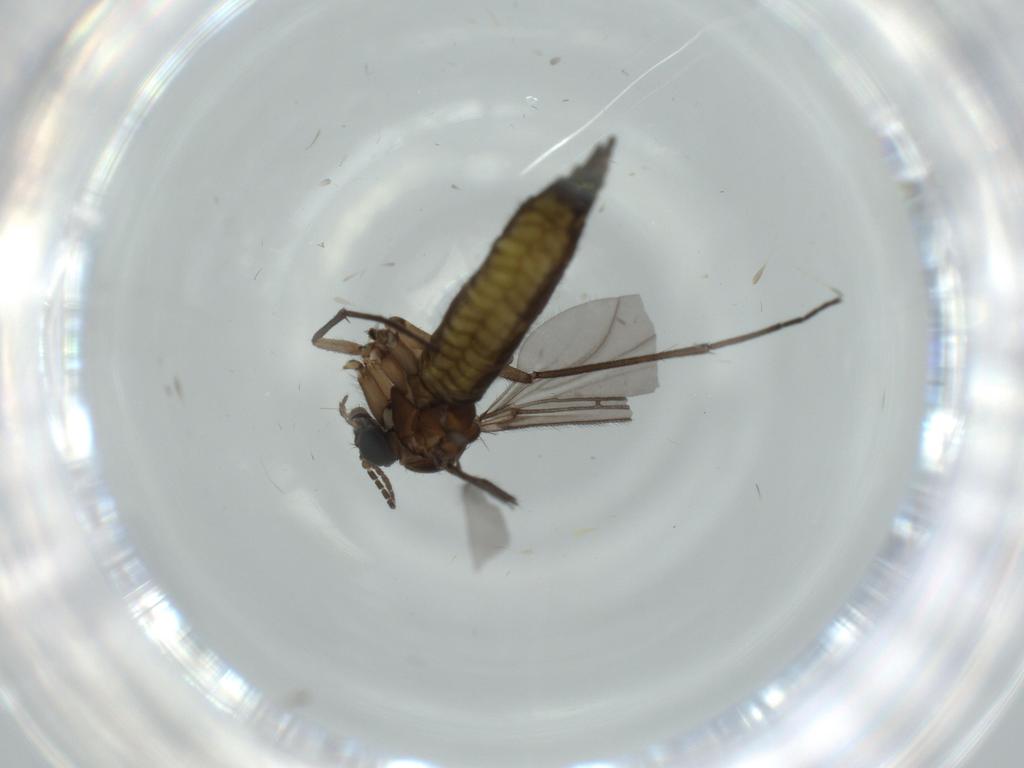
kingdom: Animalia
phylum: Arthropoda
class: Insecta
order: Diptera
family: Sciaridae
